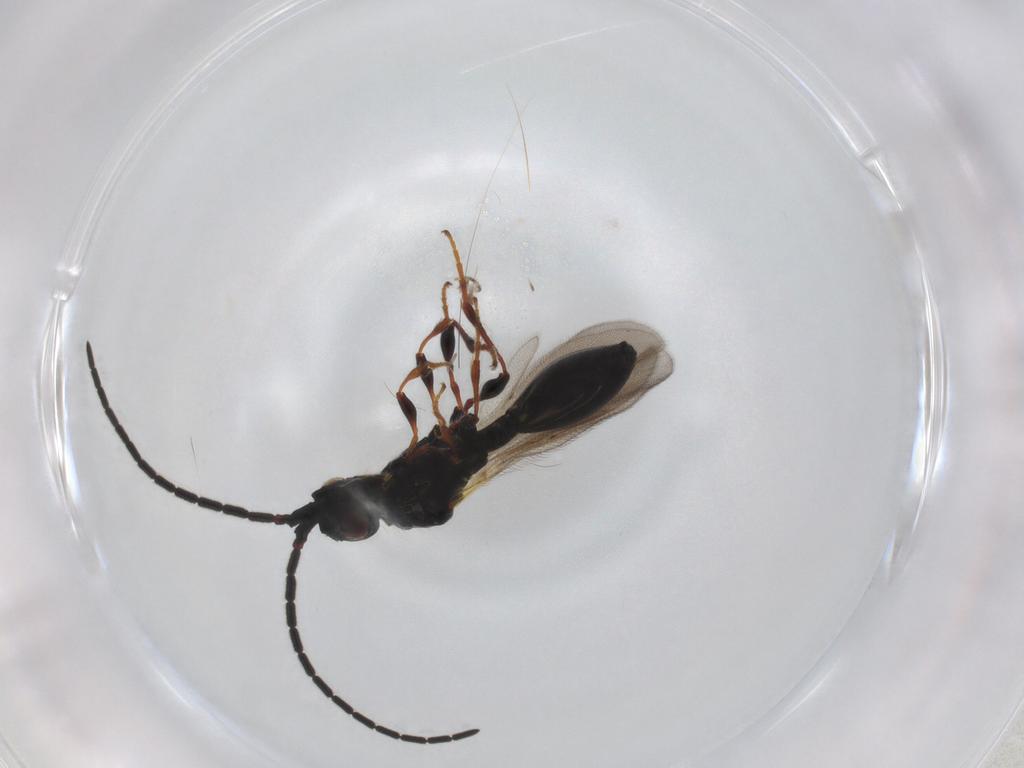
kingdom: Animalia
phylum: Arthropoda
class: Insecta
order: Hymenoptera
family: Diapriidae
